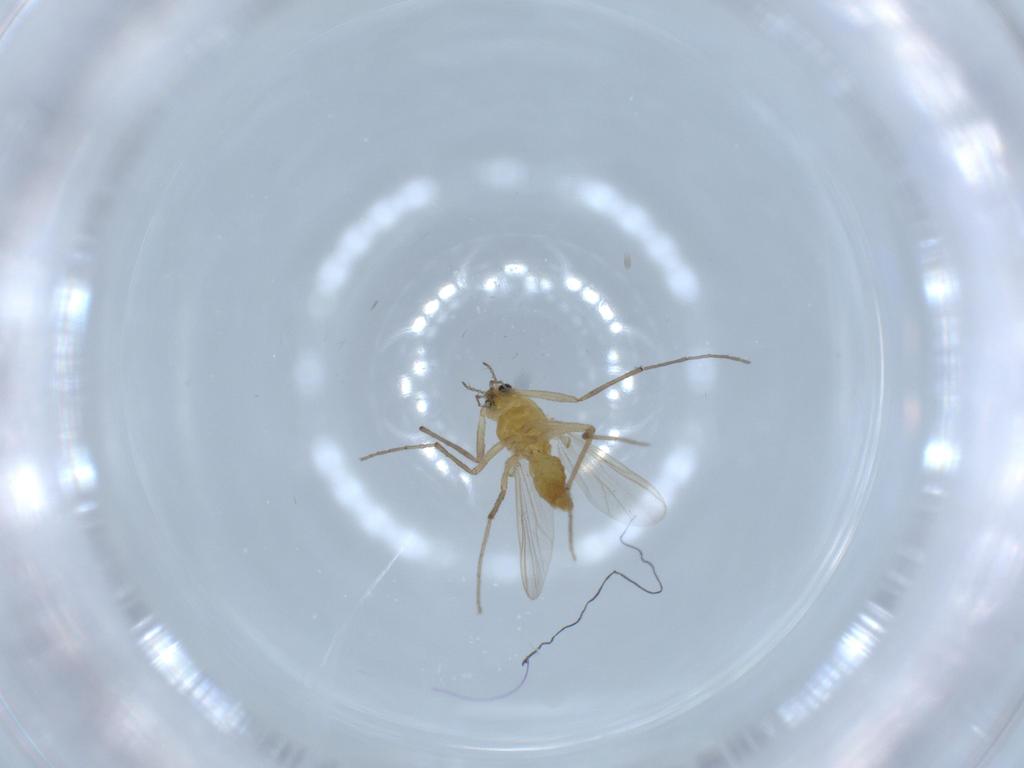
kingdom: Animalia
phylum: Arthropoda
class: Insecta
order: Diptera
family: Chironomidae
